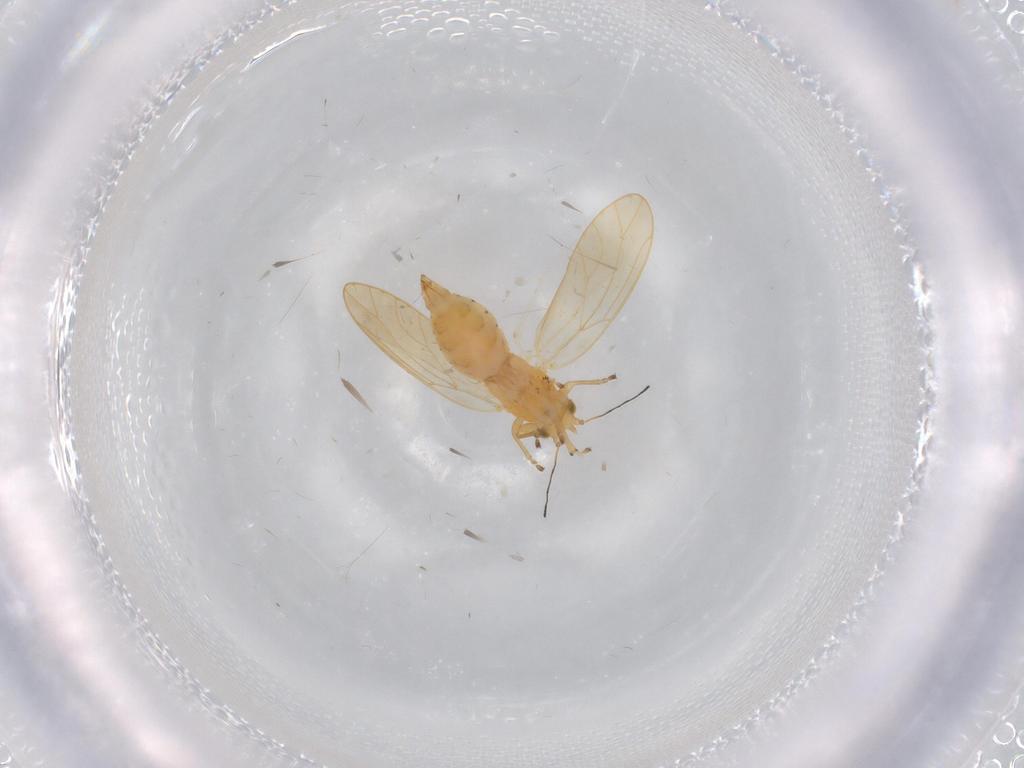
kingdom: Animalia
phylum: Arthropoda
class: Insecta
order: Hemiptera
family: Triozidae
